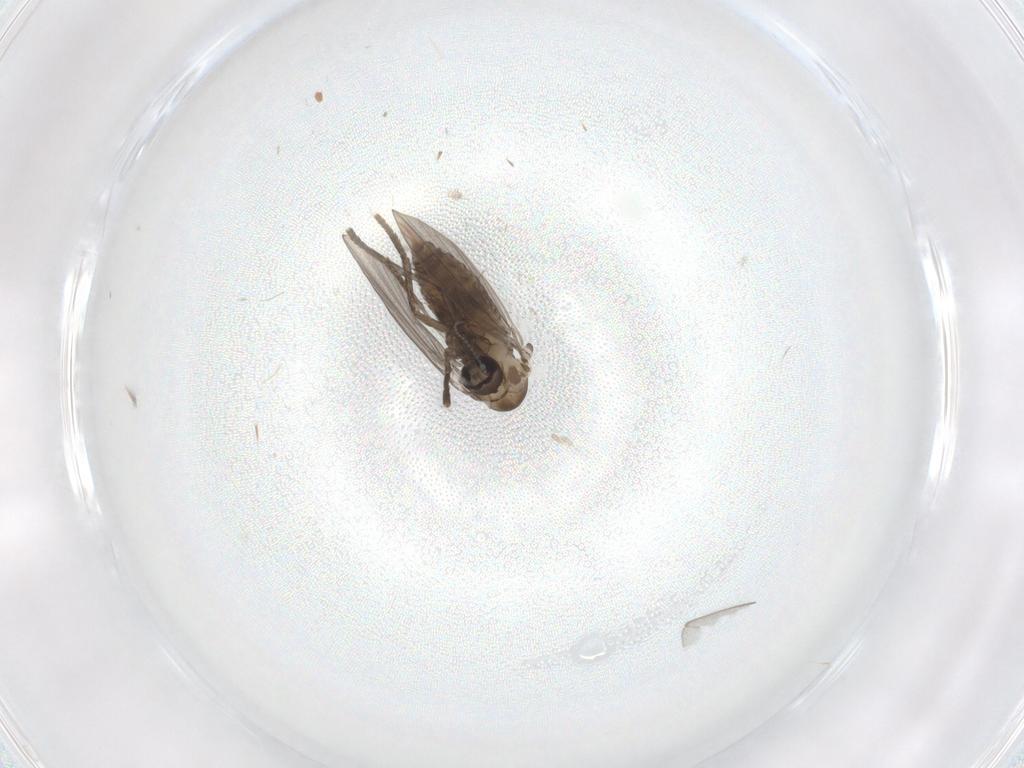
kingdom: Animalia
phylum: Arthropoda
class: Insecta
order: Diptera
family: Psychodidae
